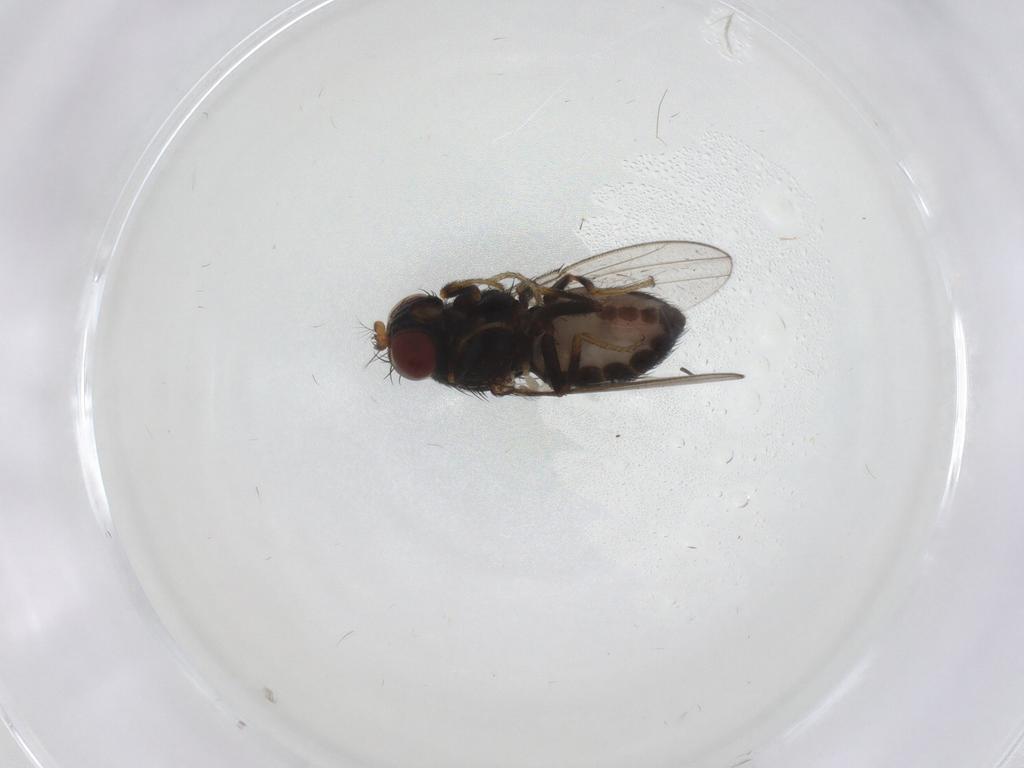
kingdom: Animalia
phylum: Arthropoda
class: Insecta
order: Diptera
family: Psychodidae
